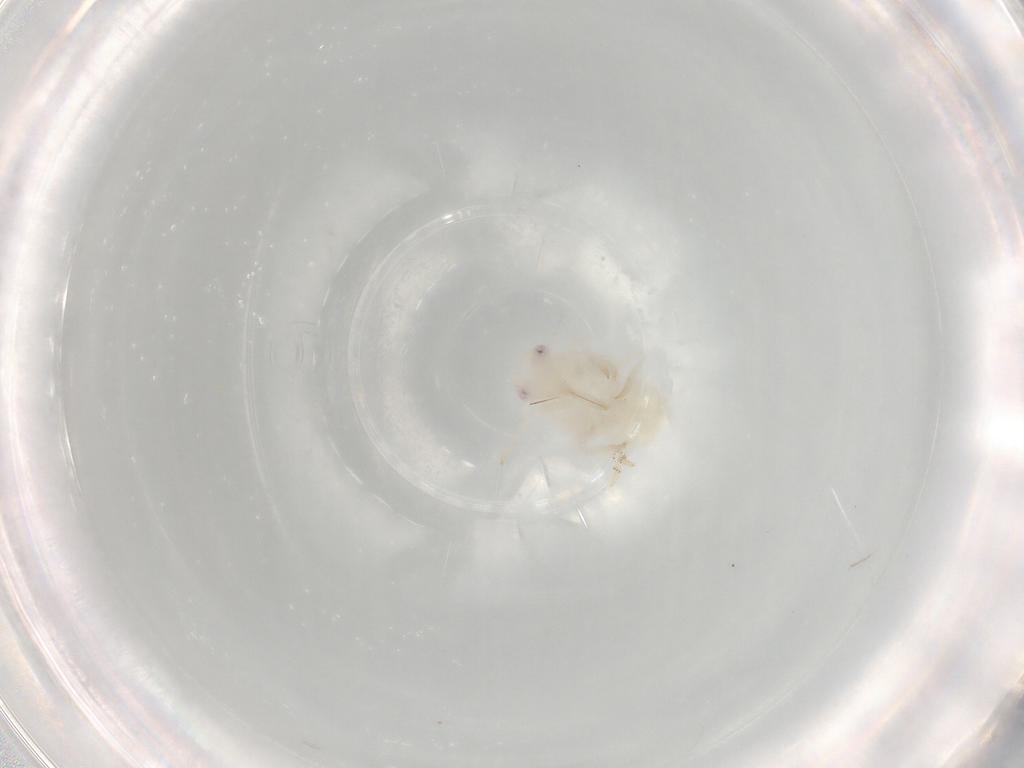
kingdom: Animalia
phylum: Arthropoda
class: Insecta
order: Hemiptera
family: Flatidae
